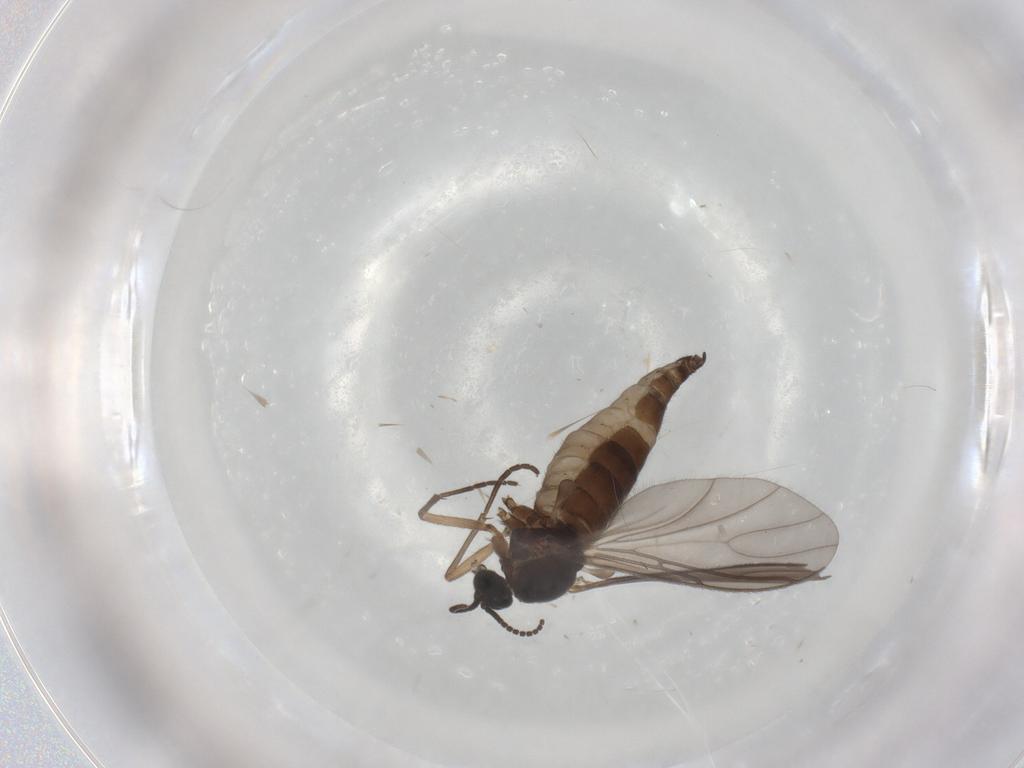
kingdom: Animalia
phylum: Arthropoda
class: Insecta
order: Diptera
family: Sciaridae
